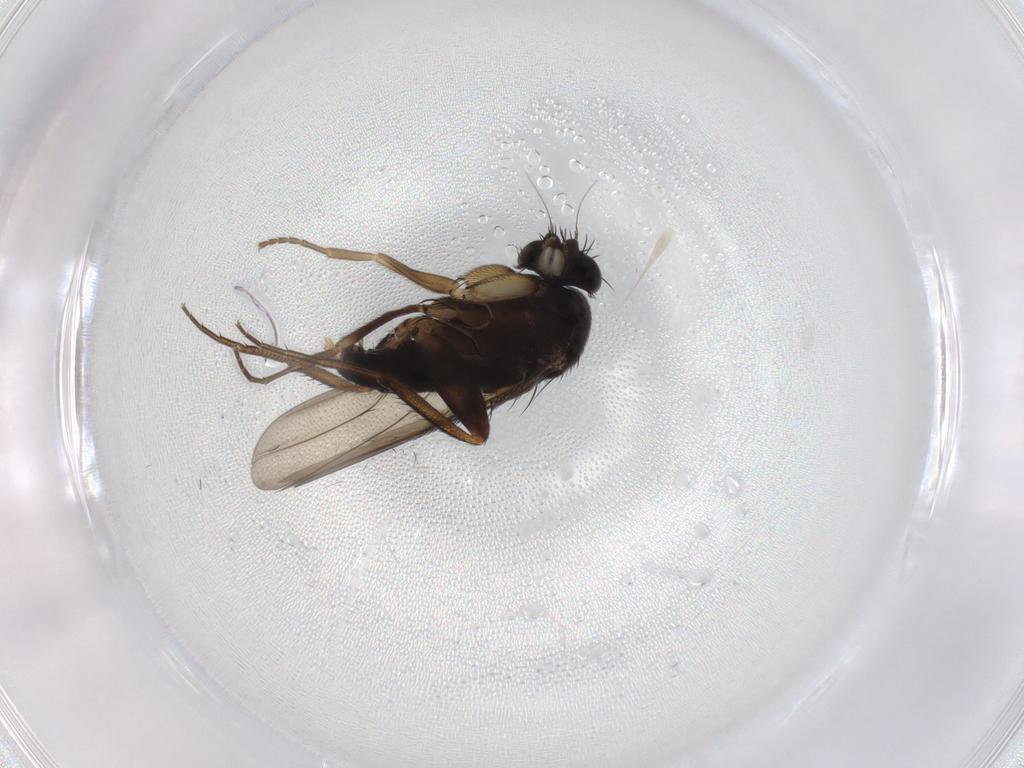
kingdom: Animalia
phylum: Arthropoda
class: Insecta
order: Diptera
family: Phoridae
